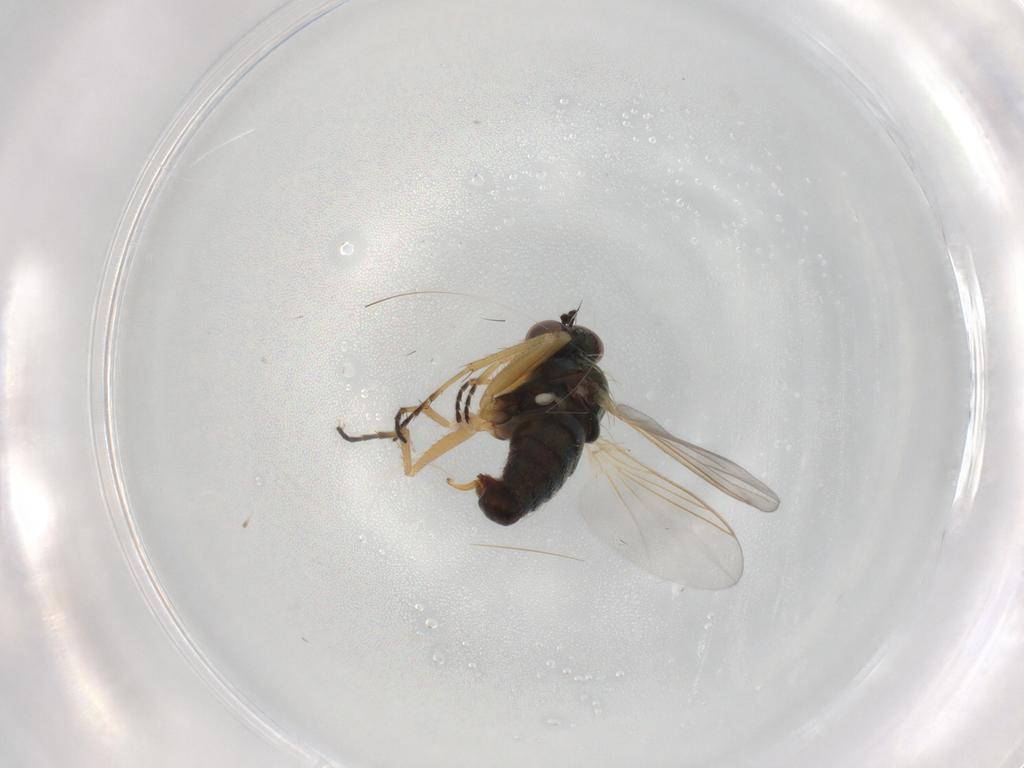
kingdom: Animalia
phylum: Arthropoda
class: Insecta
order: Diptera
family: Dolichopodidae
